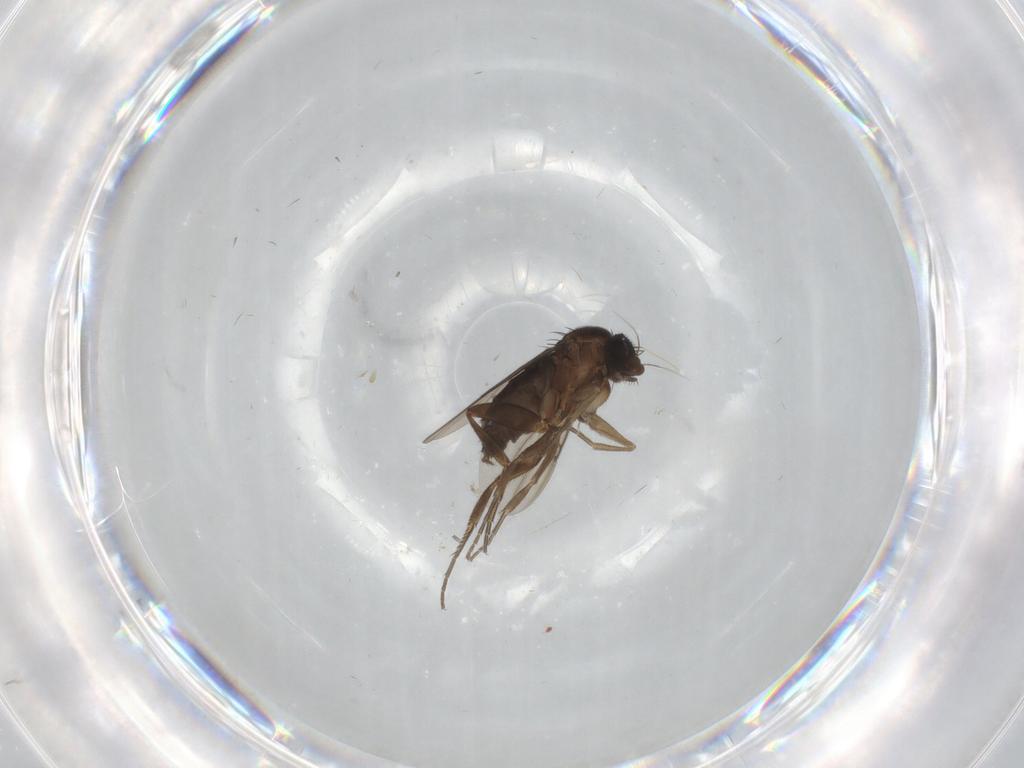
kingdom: Animalia
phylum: Arthropoda
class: Insecta
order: Diptera
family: Phoridae
